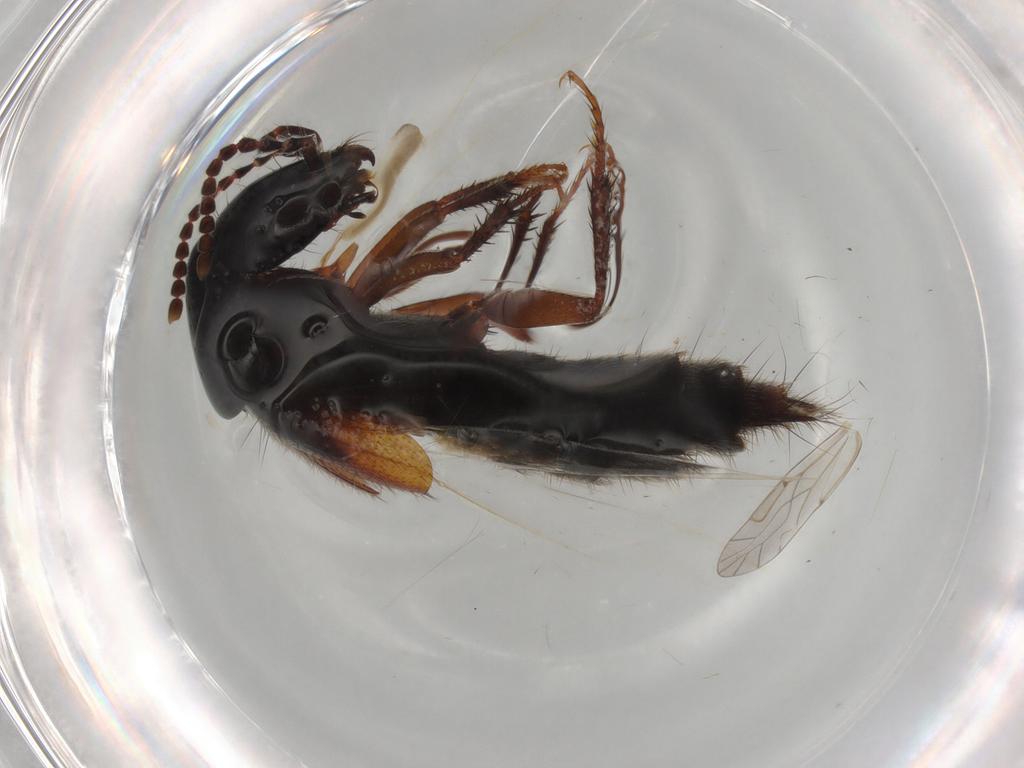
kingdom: Animalia
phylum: Arthropoda
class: Insecta
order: Coleoptera
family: Staphylinidae
